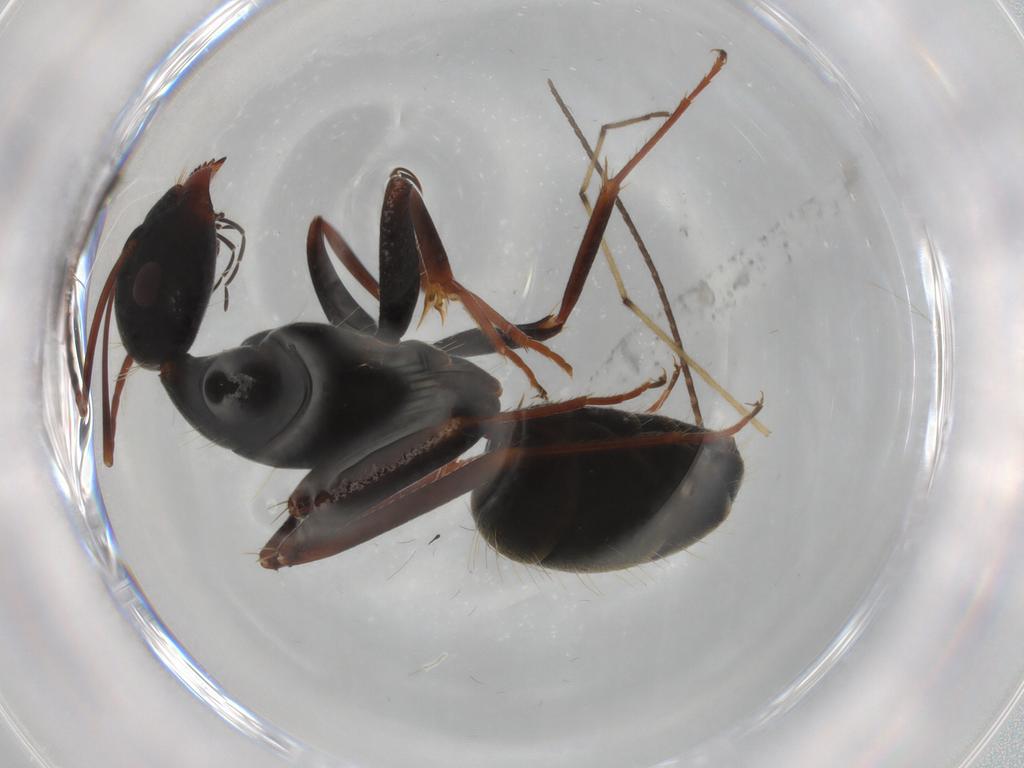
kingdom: Animalia
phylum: Arthropoda
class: Insecta
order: Hymenoptera
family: Formicidae
